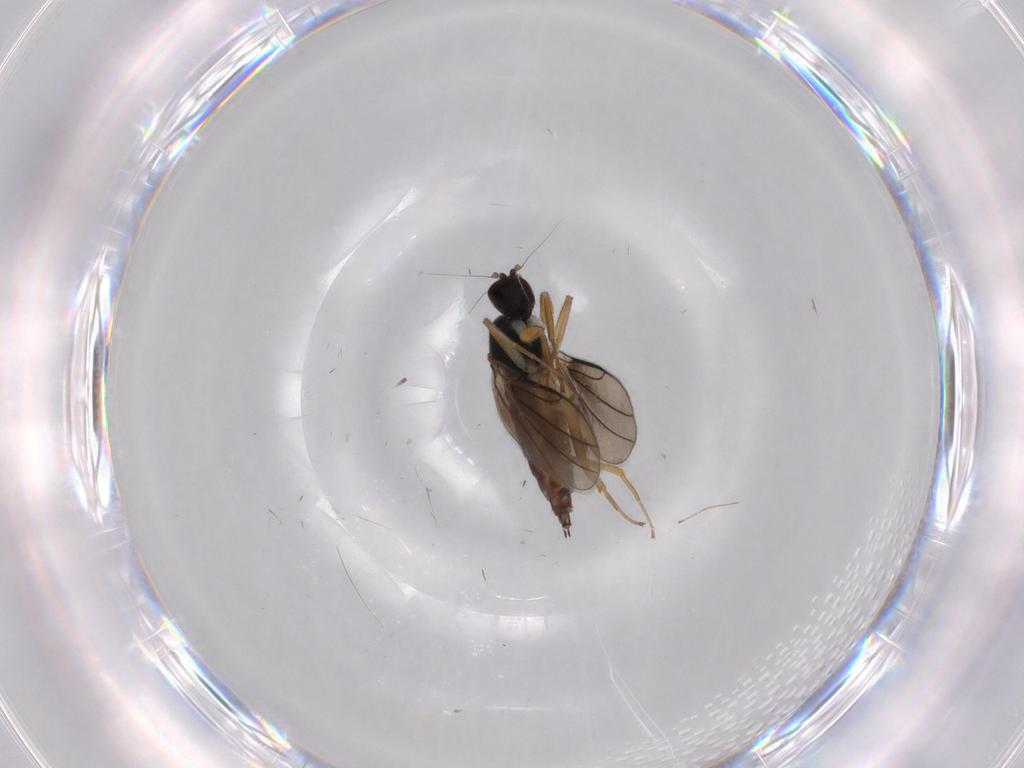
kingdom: Animalia
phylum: Arthropoda
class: Insecta
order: Diptera
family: Hybotidae
